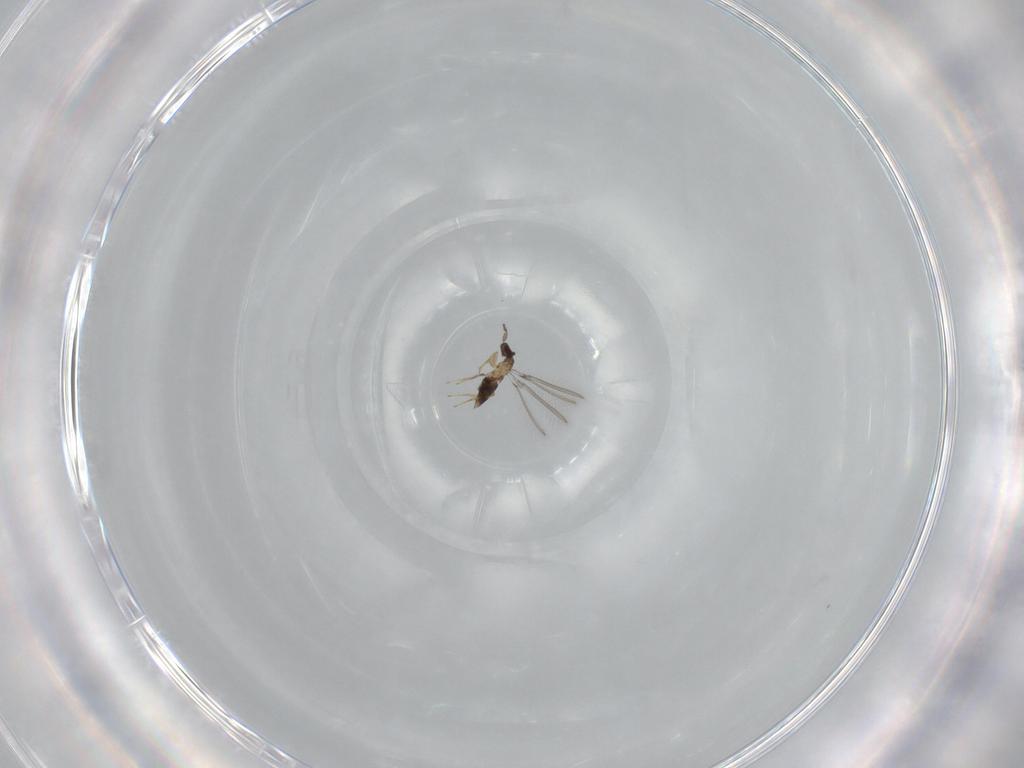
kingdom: Animalia
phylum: Arthropoda
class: Insecta
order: Hymenoptera
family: Mymaridae
